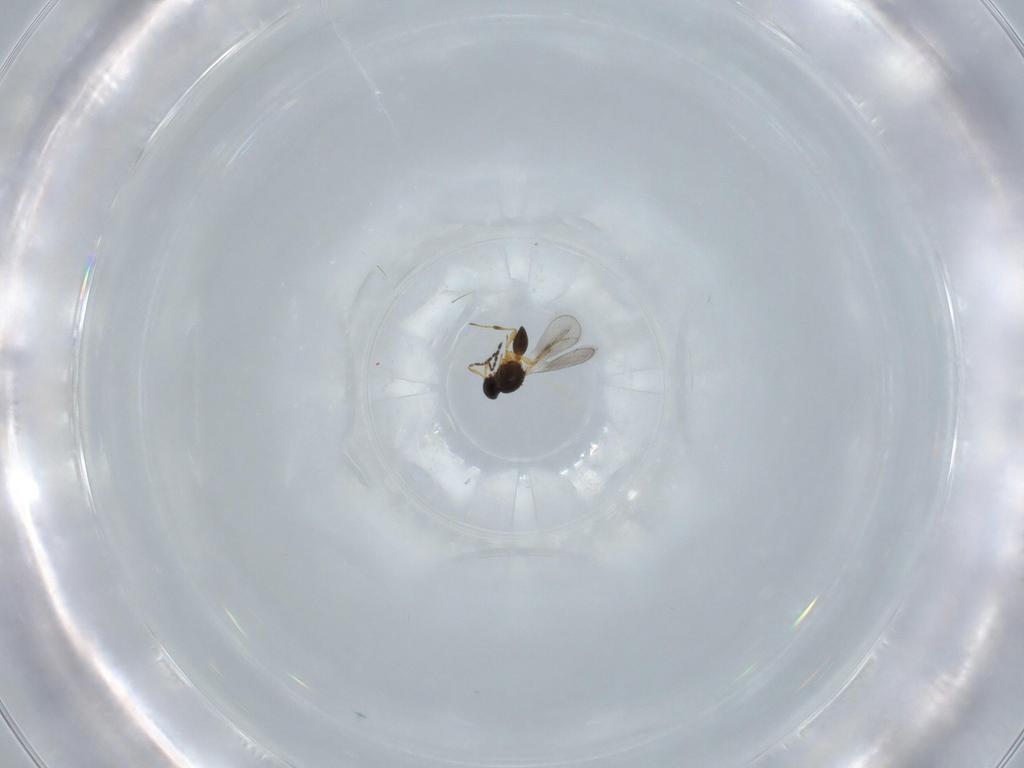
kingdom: Animalia
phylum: Arthropoda
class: Insecta
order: Hymenoptera
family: Platygastridae
